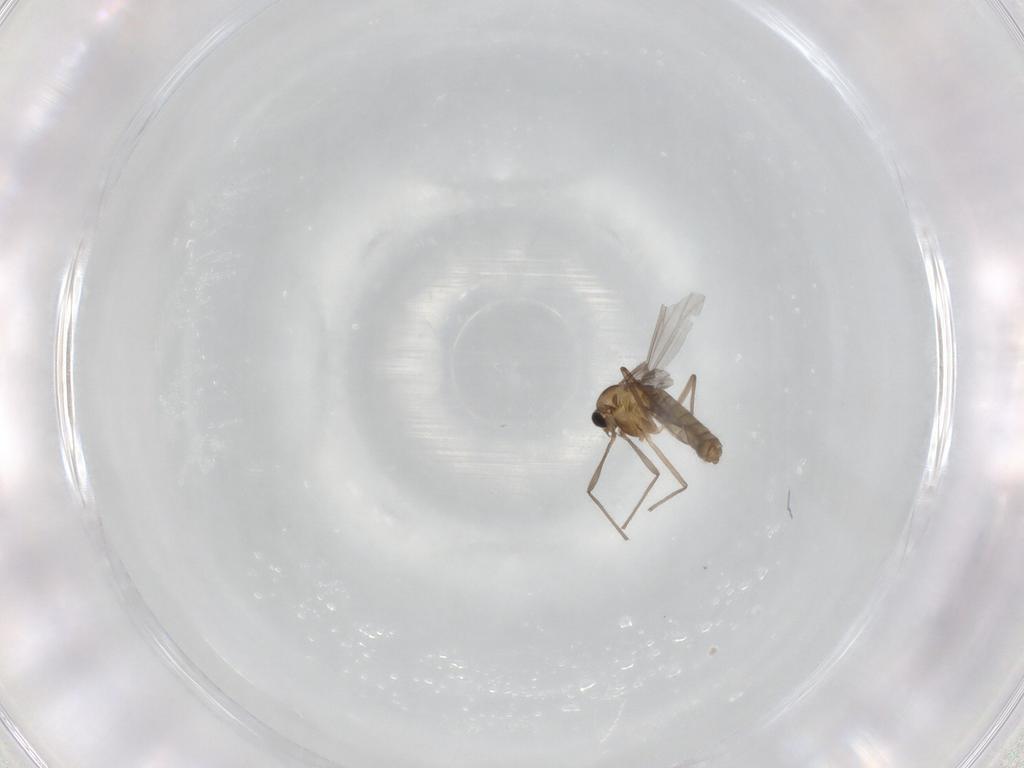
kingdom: Animalia
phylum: Arthropoda
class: Insecta
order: Diptera
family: Chironomidae
